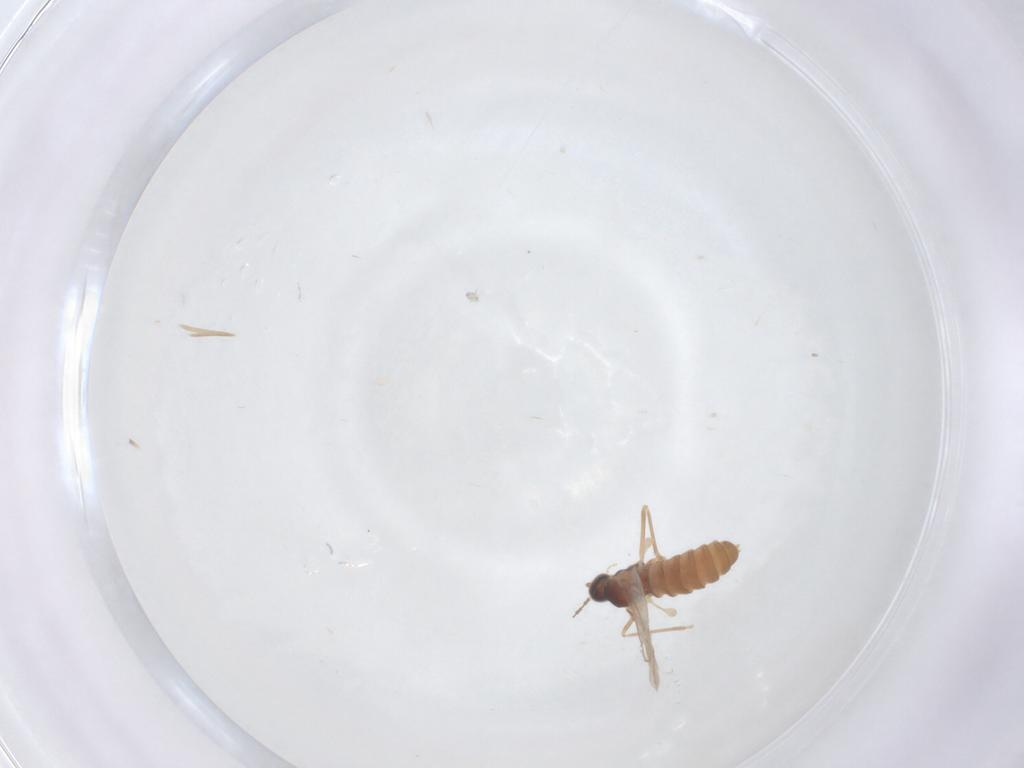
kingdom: Animalia
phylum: Arthropoda
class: Insecta
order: Diptera
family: Cecidomyiidae
